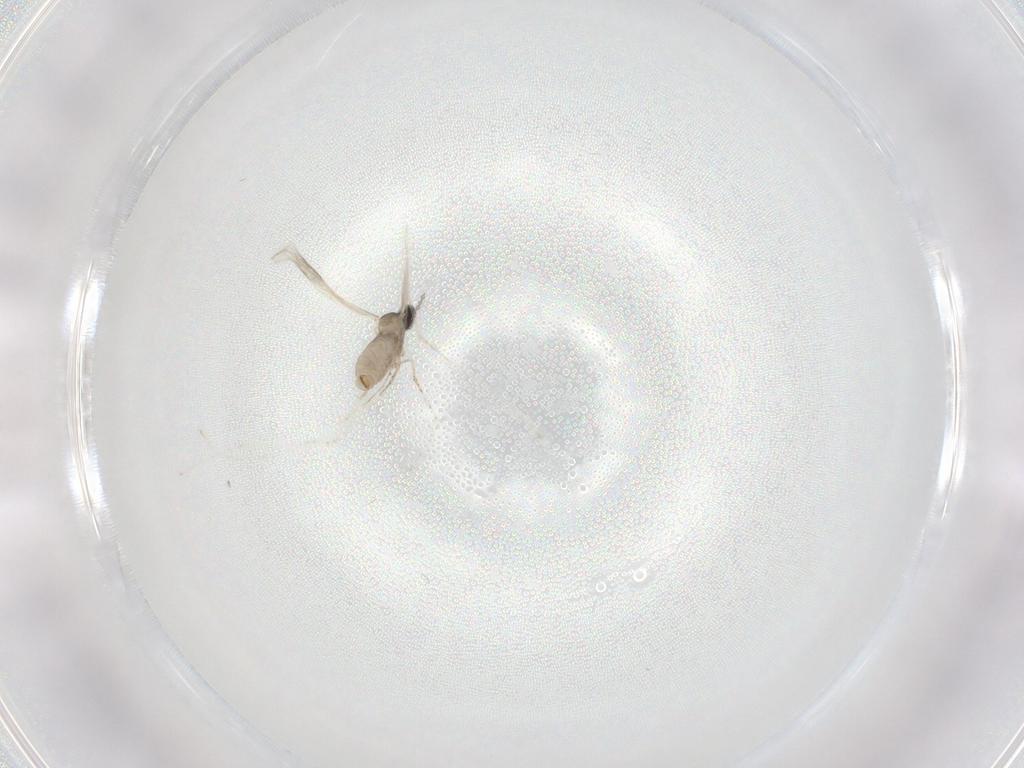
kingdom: Animalia
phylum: Arthropoda
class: Insecta
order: Diptera
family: Cecidomyiidae
